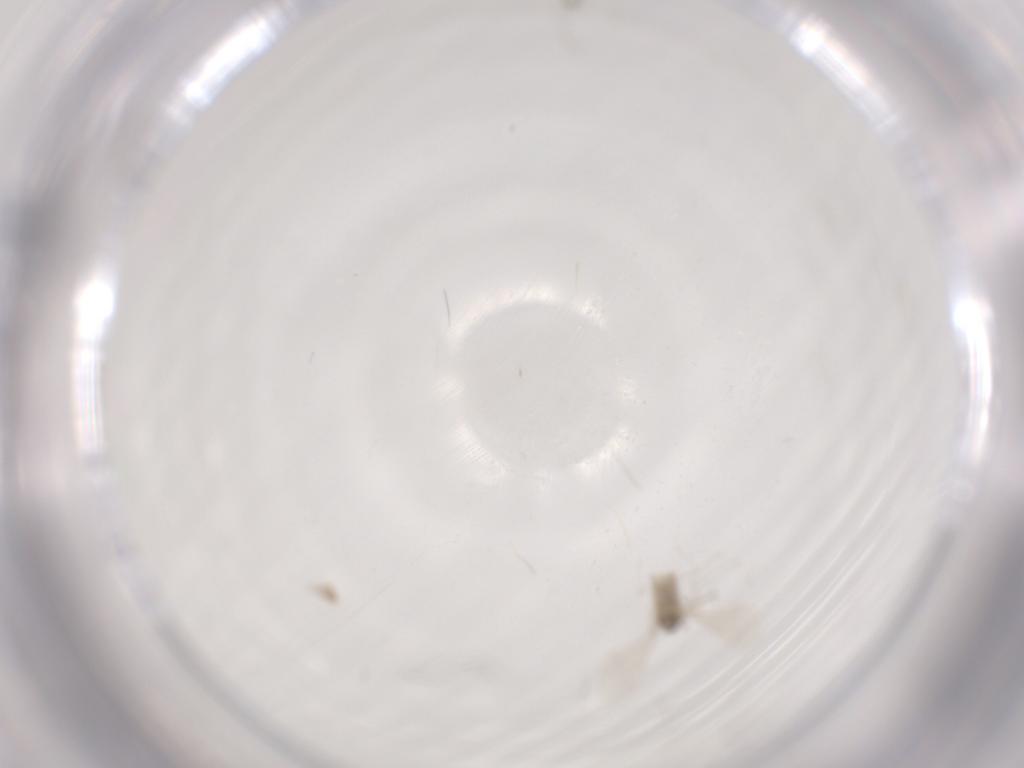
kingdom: Animalia
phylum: Arthropoda
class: Insecta
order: Diptera
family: Cecidomyiidae
